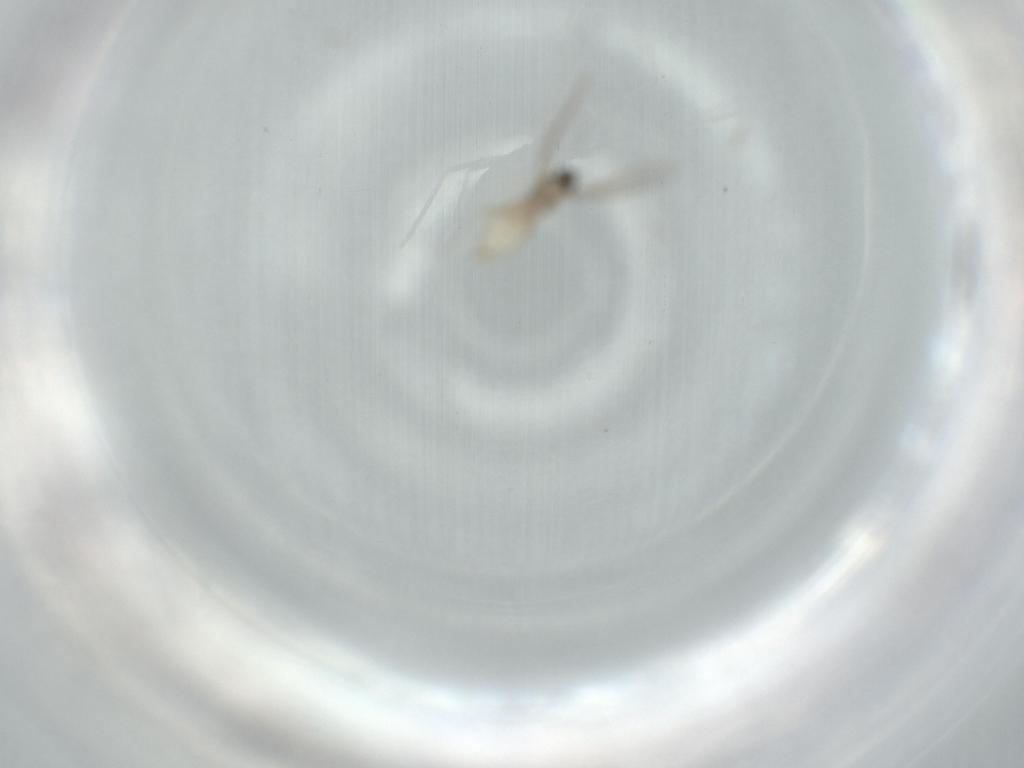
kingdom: Animalia
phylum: Arthropoda
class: Insecta
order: Diptera
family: Cecidomyiidae
